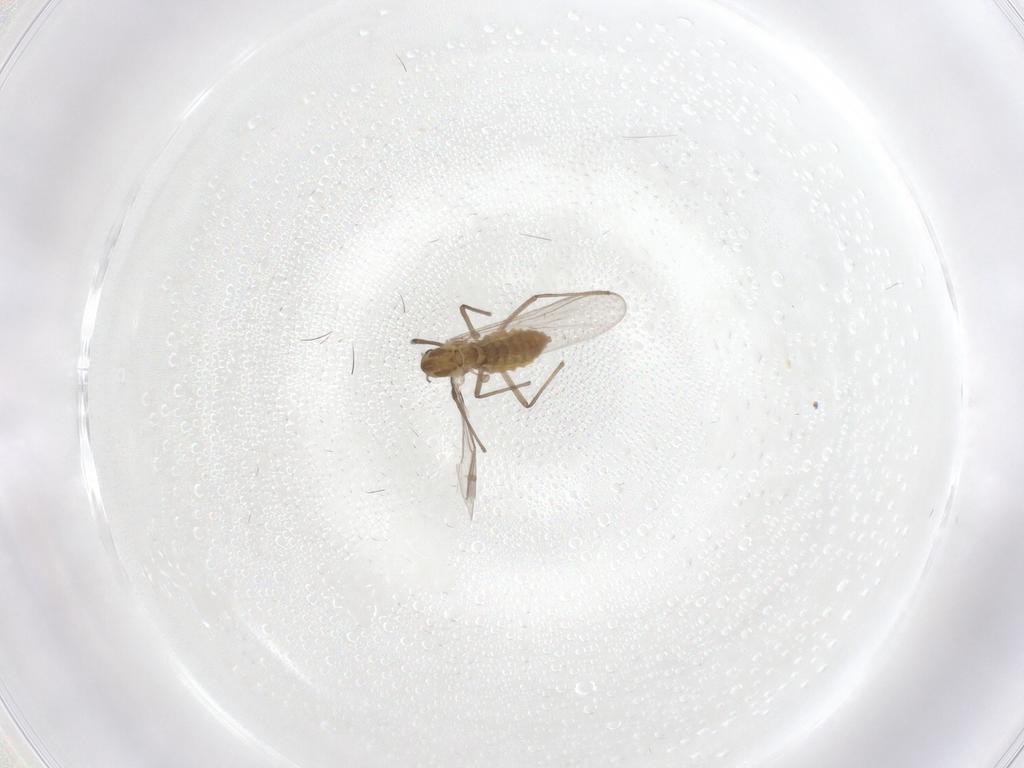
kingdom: Animalia
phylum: Arthropoda
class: Insecta
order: Diptera
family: Chironomidae
